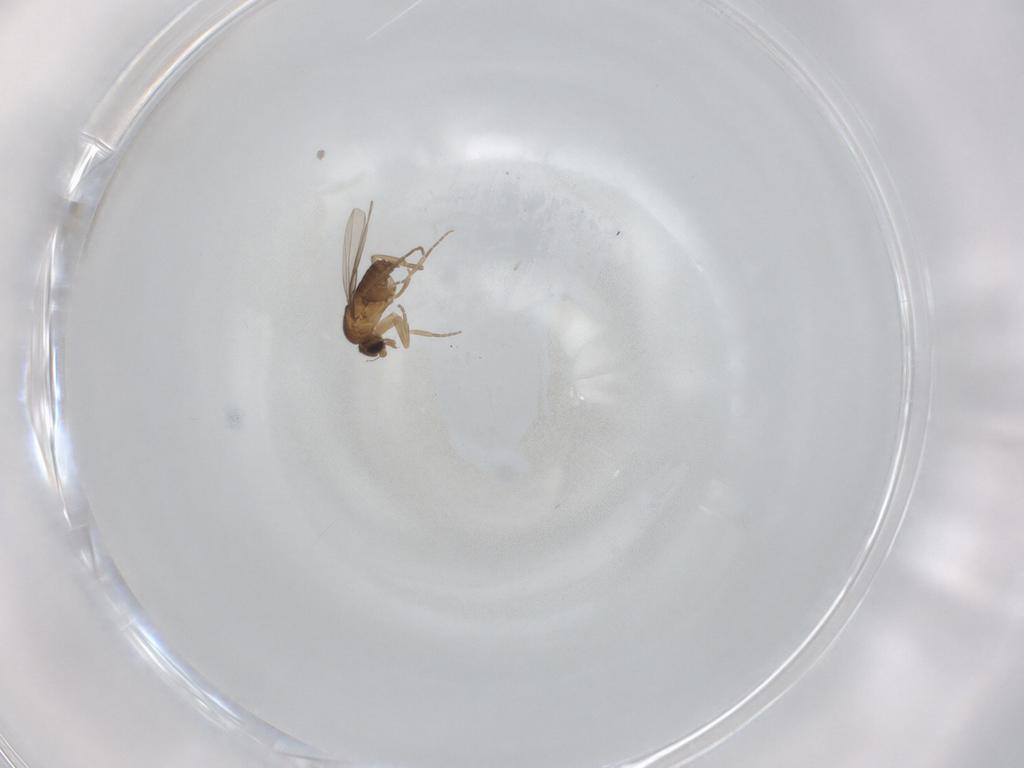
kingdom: Animalia
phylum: Arthropoda
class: Insecta
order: Diptera
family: Phoridae
